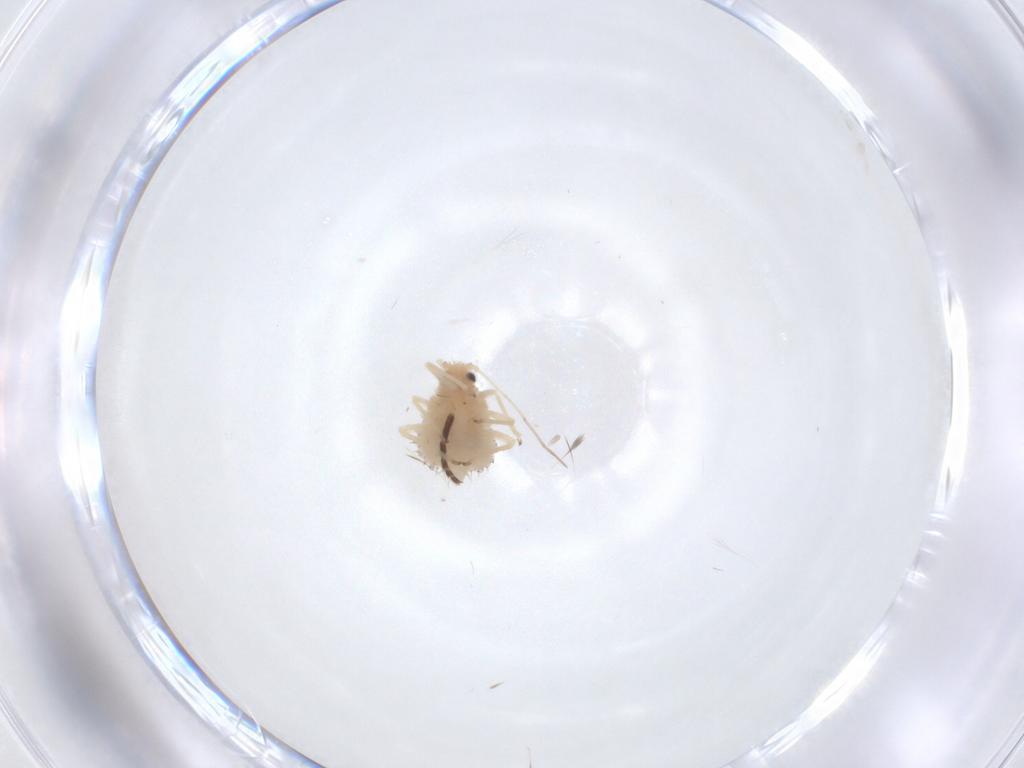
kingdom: Animalia
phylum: Arthropoda
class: Insecta
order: Hemiptera
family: Aphididae
